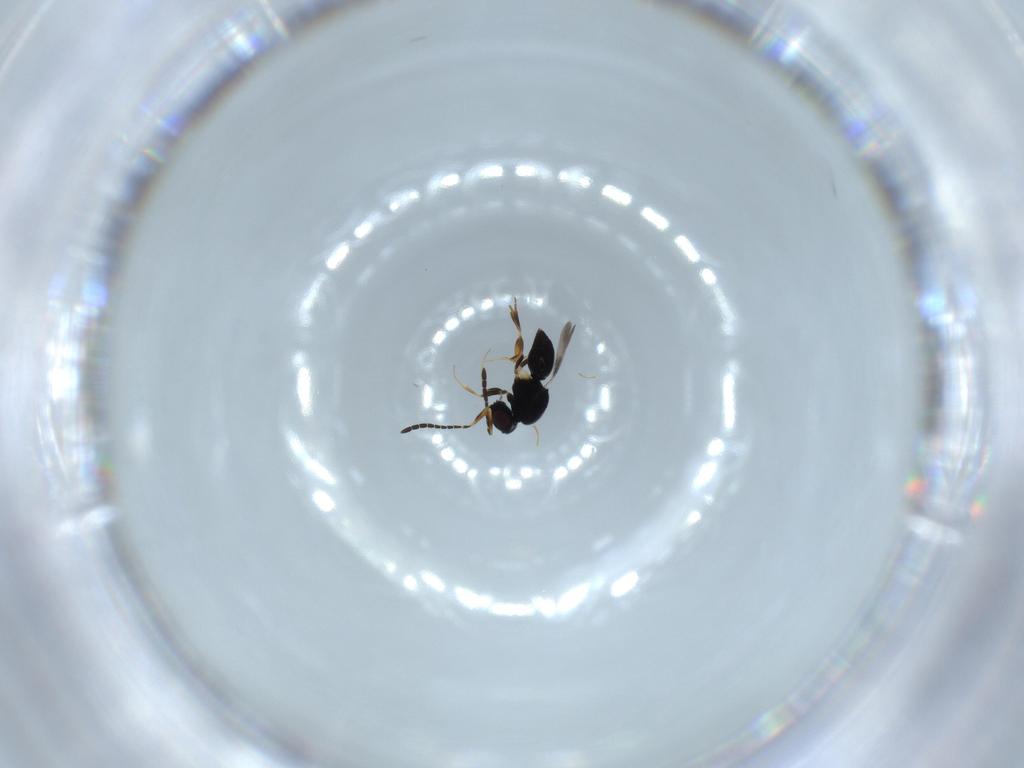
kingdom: Animalia
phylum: Arthropoda
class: Insecta
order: Hymenoptera
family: Ceraphronidae
